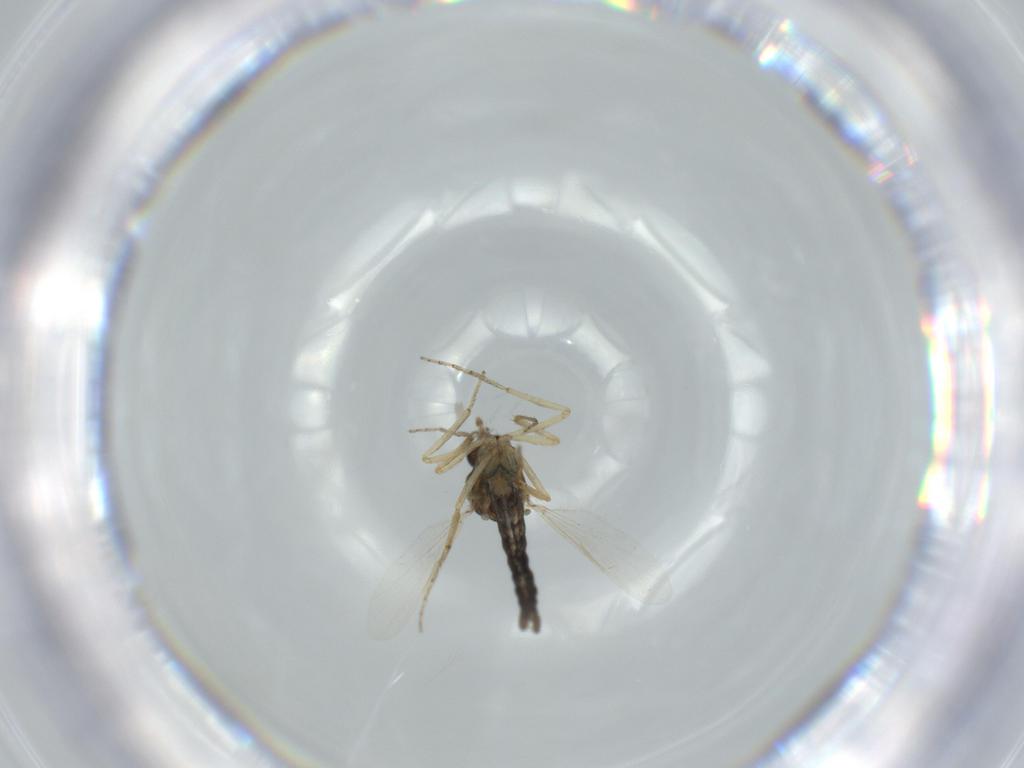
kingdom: Animalia
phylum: Arthropoda
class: Insecta
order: Diptera
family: Ceratopogonidae
